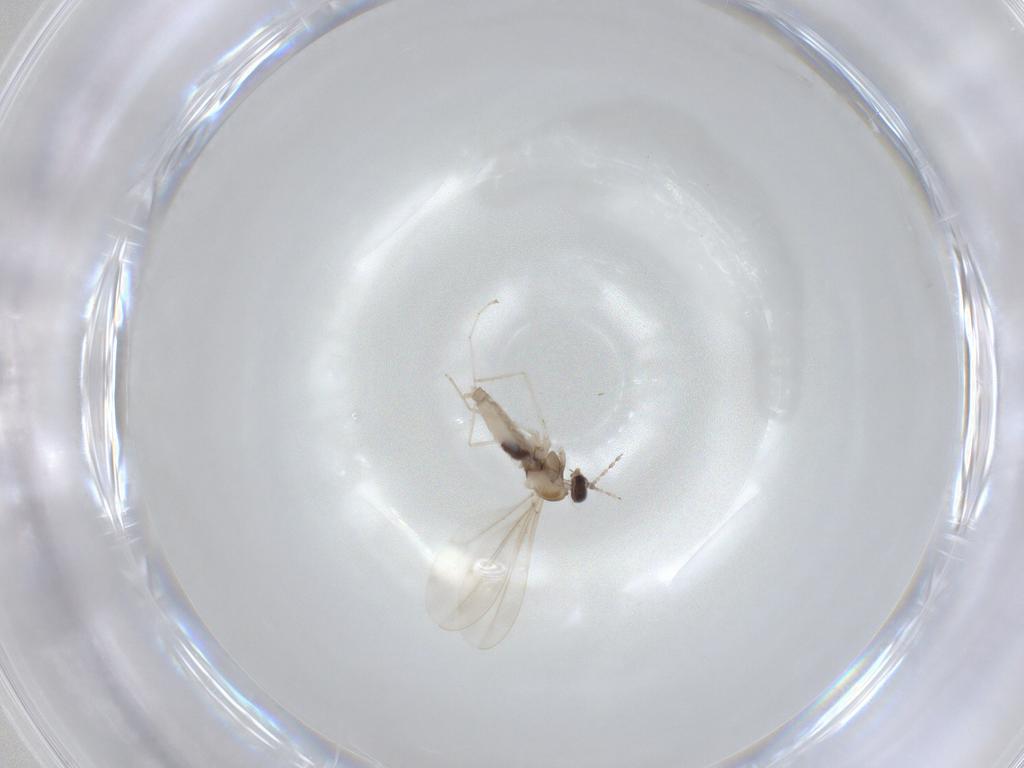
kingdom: Animalia
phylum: Arthropoda
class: Insecta
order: Diptera
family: Cecidomyiidae
